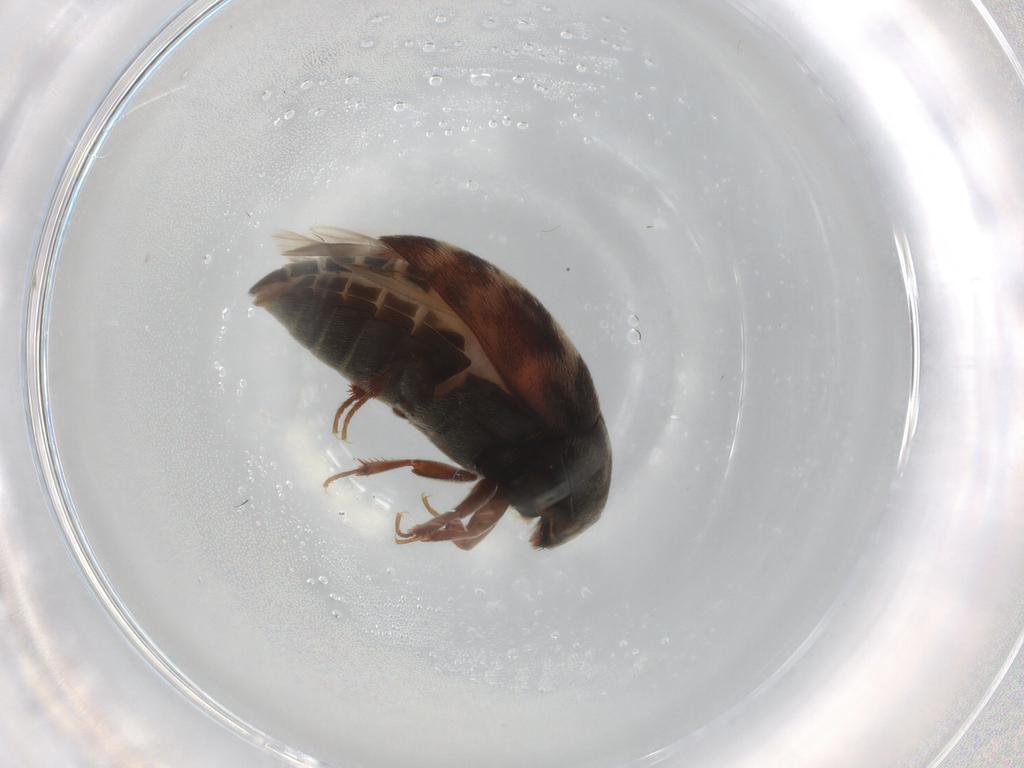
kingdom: Animalia
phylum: Arthropoda
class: Insecta
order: Coleoptera
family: Dermestidae
